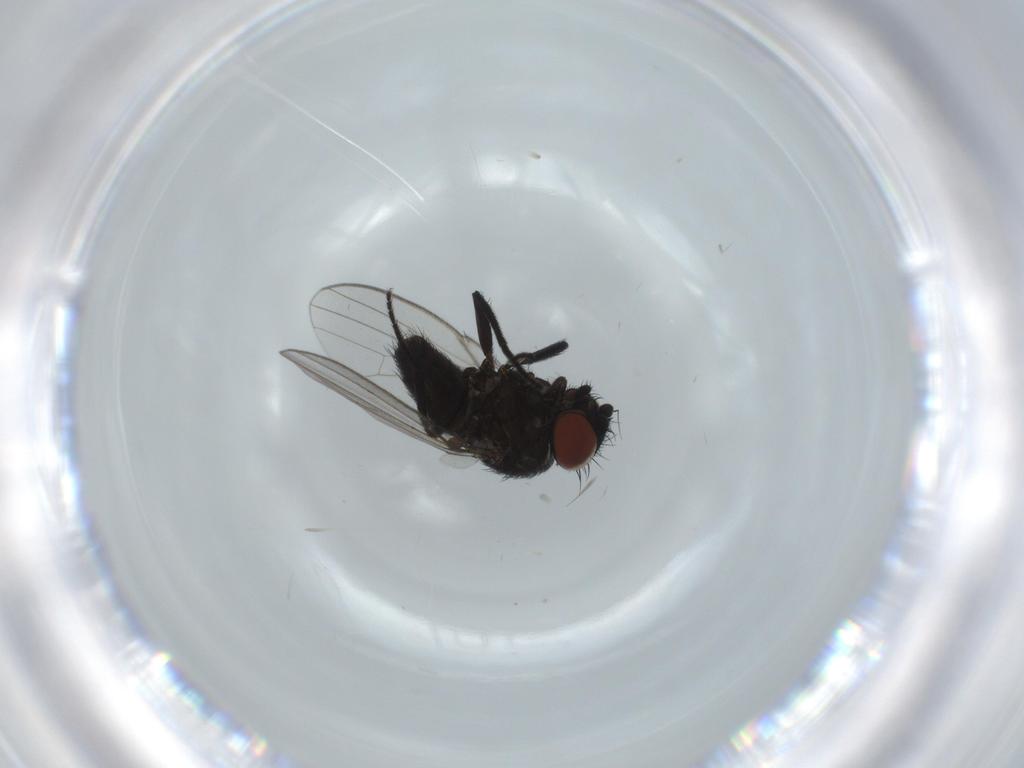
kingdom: Animalia
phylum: Arthropoda
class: Insecta
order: Diptera
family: Milichiidae
